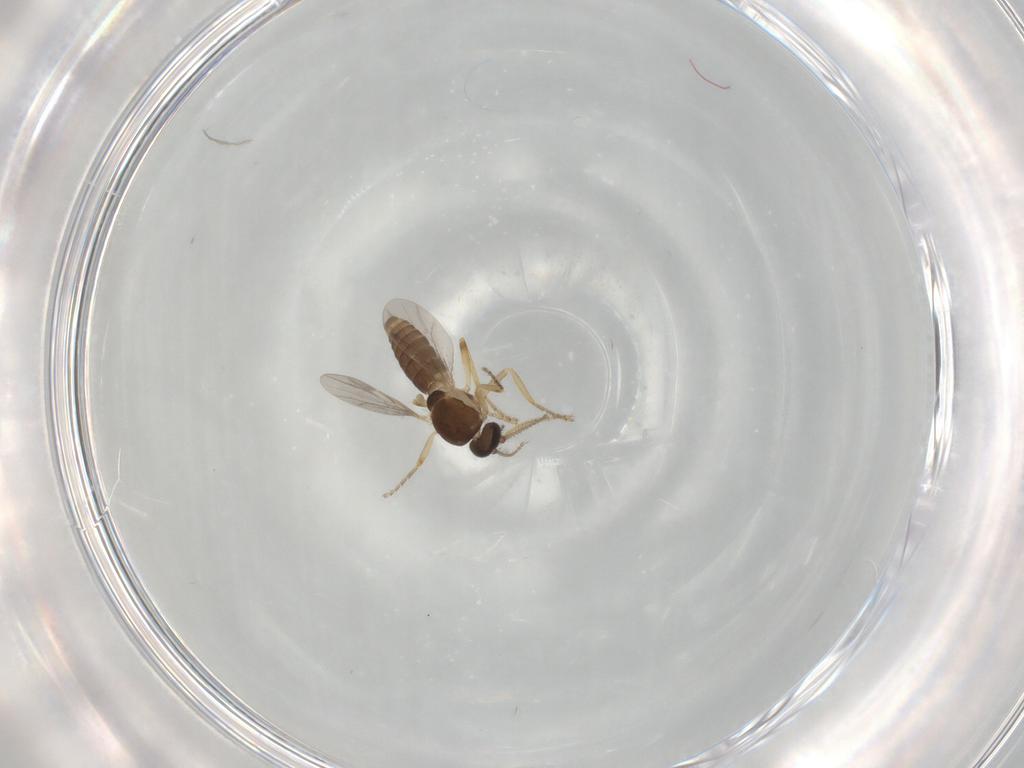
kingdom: Animalia
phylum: Arthropoda
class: Insecta
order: Diptera
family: Ceratopogonidae
